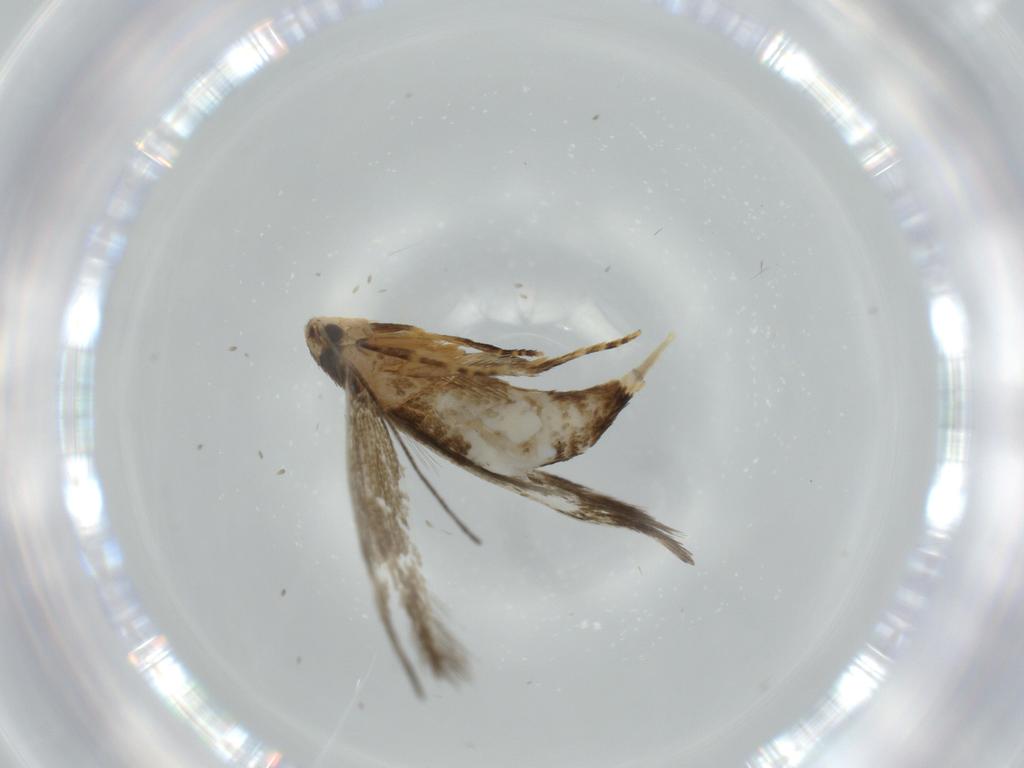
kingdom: Animalia
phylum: Arthropoda
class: Insecta
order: Lepidoptera
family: Tineidae
